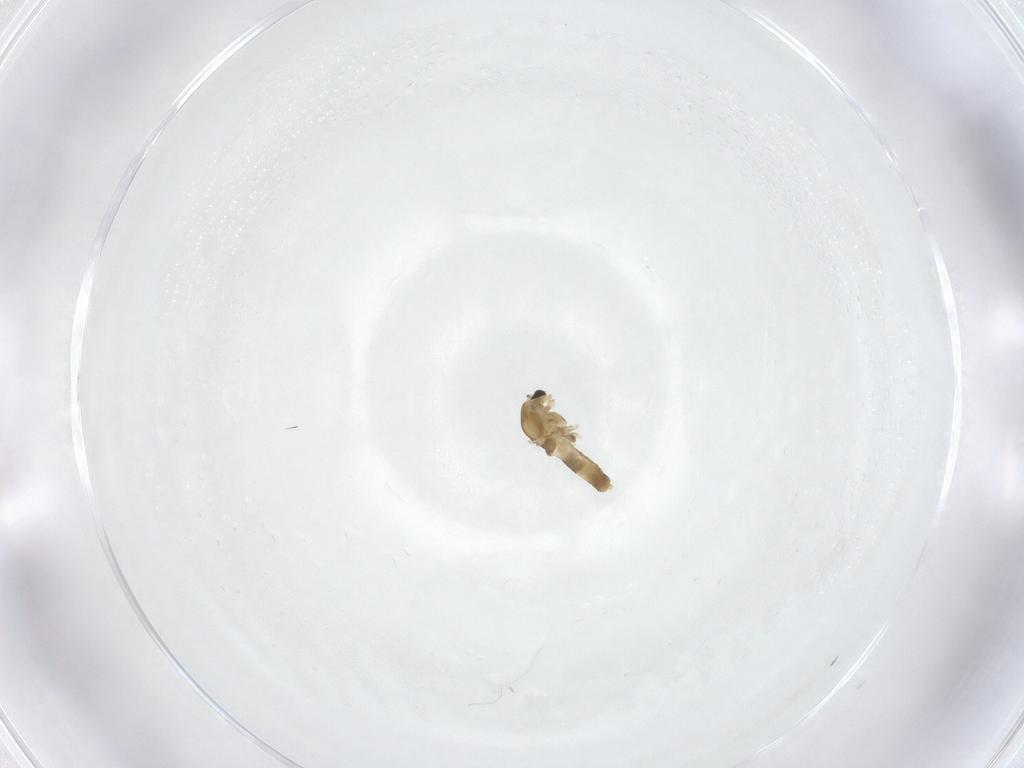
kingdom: Animalia
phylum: Arthropoda
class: Insecta
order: Diptera
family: Chironomidae
